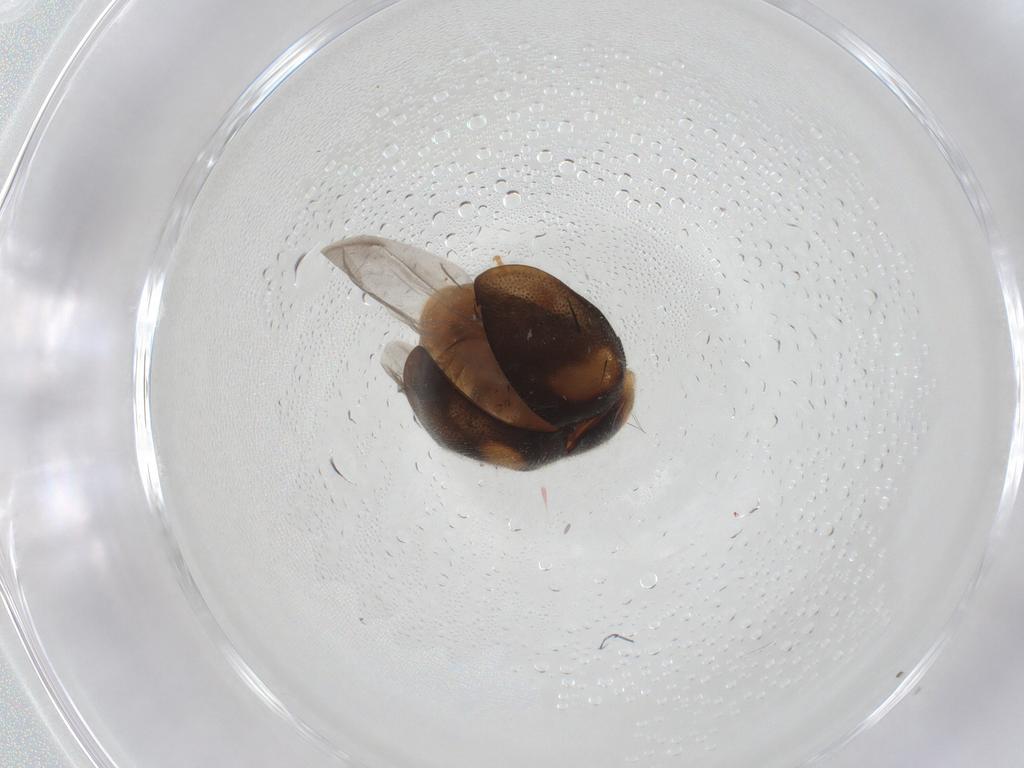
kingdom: Animalia
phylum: Arthropoda
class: Insecta
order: Coleoptera
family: Coccinellidae
